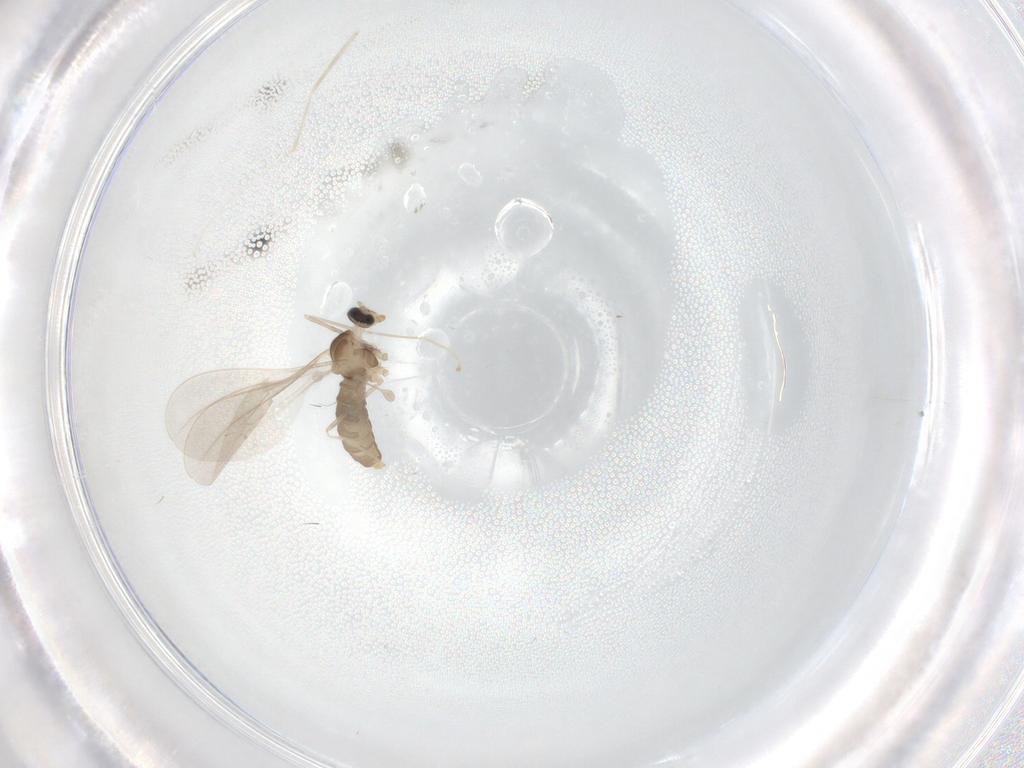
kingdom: Animalia
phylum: Arthropoda
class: Insecta
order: Diptera
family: Cecidomyiidae
